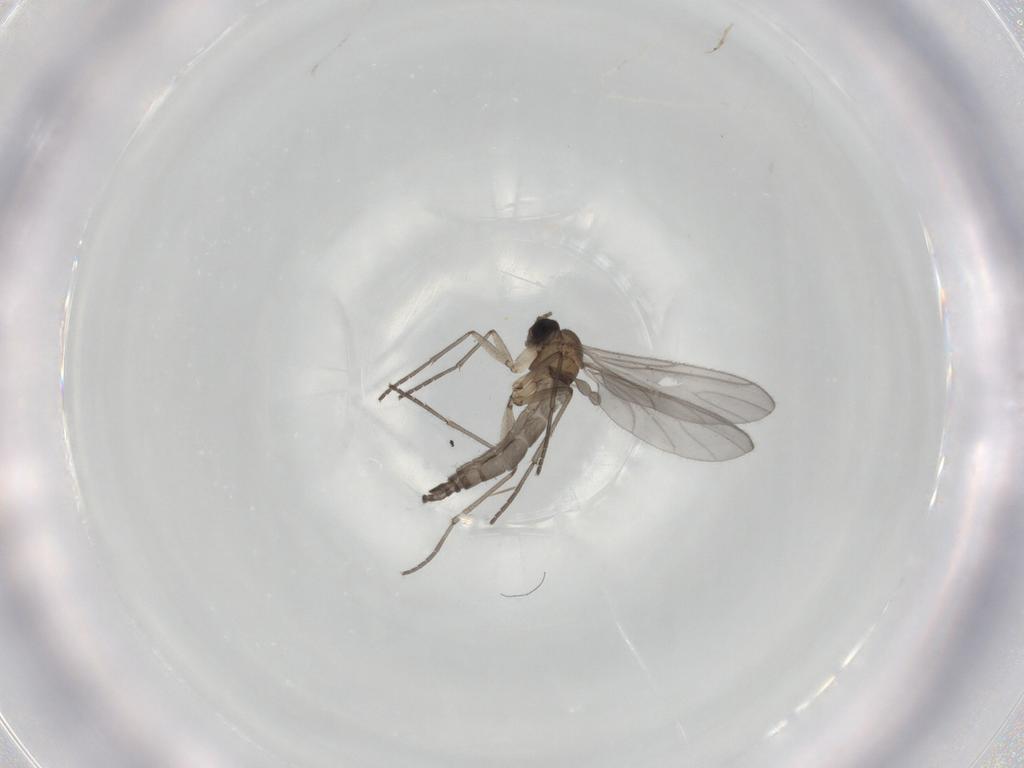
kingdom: Animalia
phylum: Arthropoda
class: Insecta
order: Diptera
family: Sciaridae
